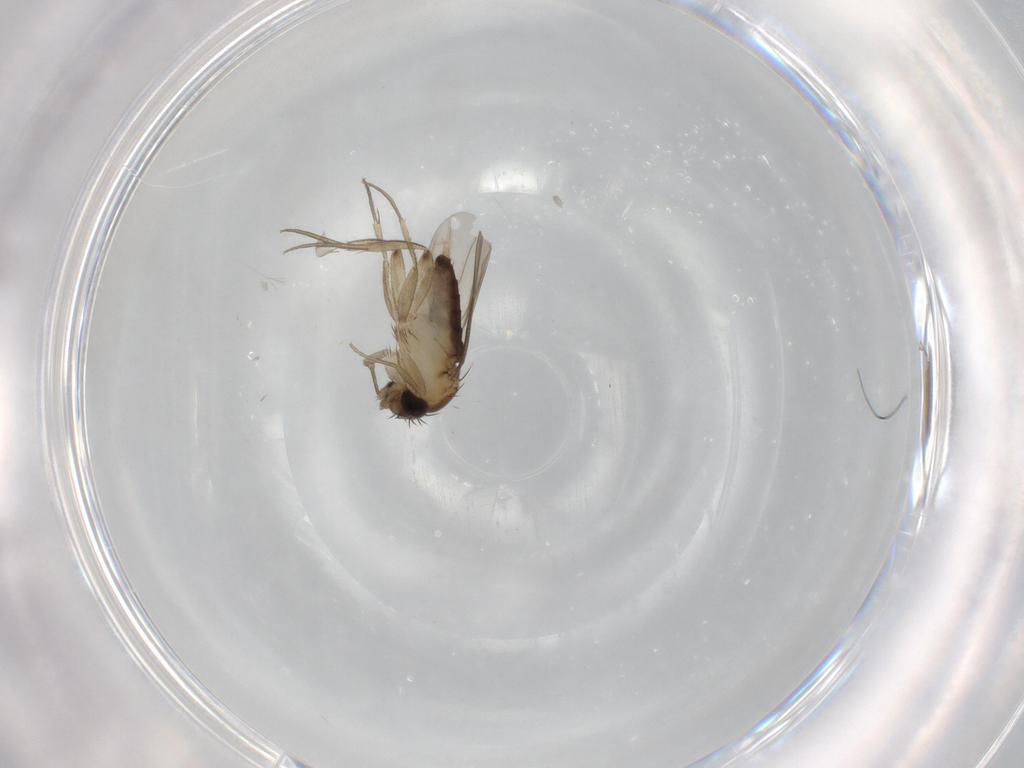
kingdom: Animalia
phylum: Arthropoda
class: Insecta
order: Diptera
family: Phoridae
